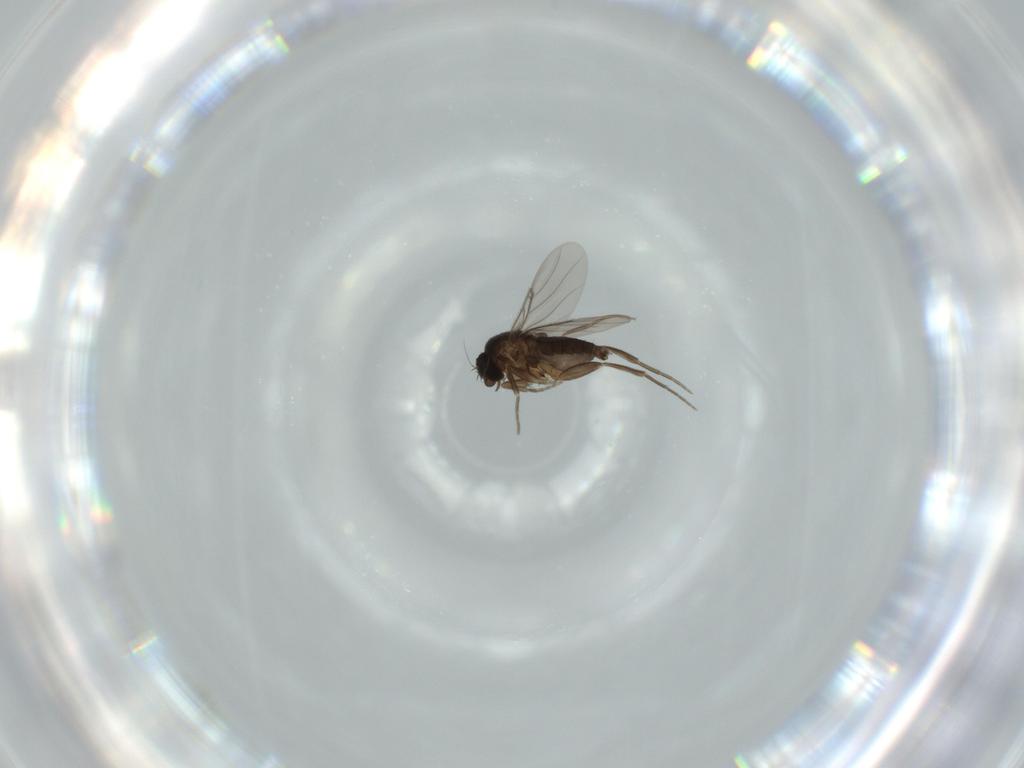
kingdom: Animalia
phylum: Arthropoda
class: Insecta
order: Diptera
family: Phoridae
